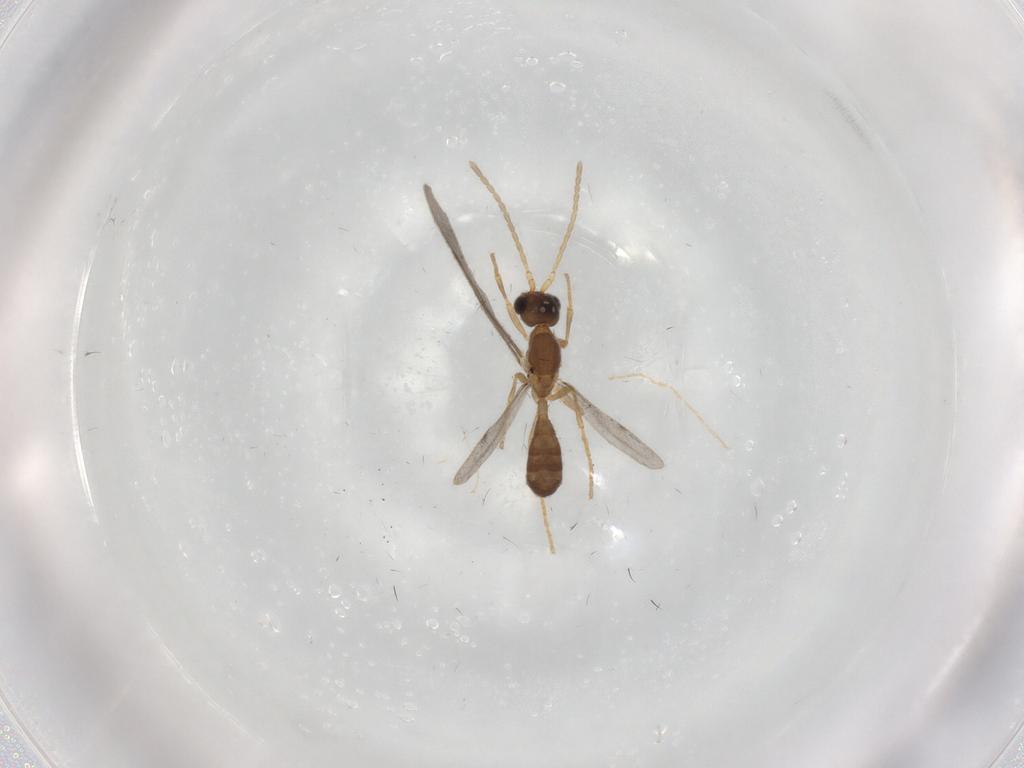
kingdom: Animalia
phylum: Arthropoda
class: Insecta
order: Hymenoptera
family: Formicidae
